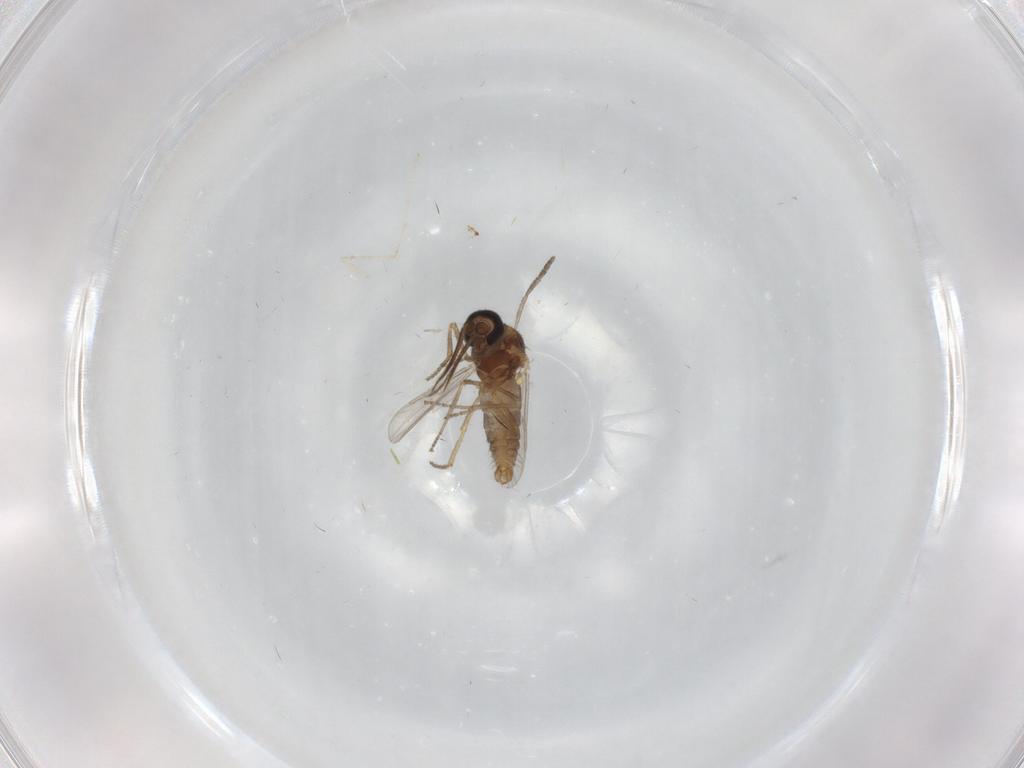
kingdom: Animalia
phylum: Arthropoda
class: Insecta
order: Diptera
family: Ceratopogonidae
